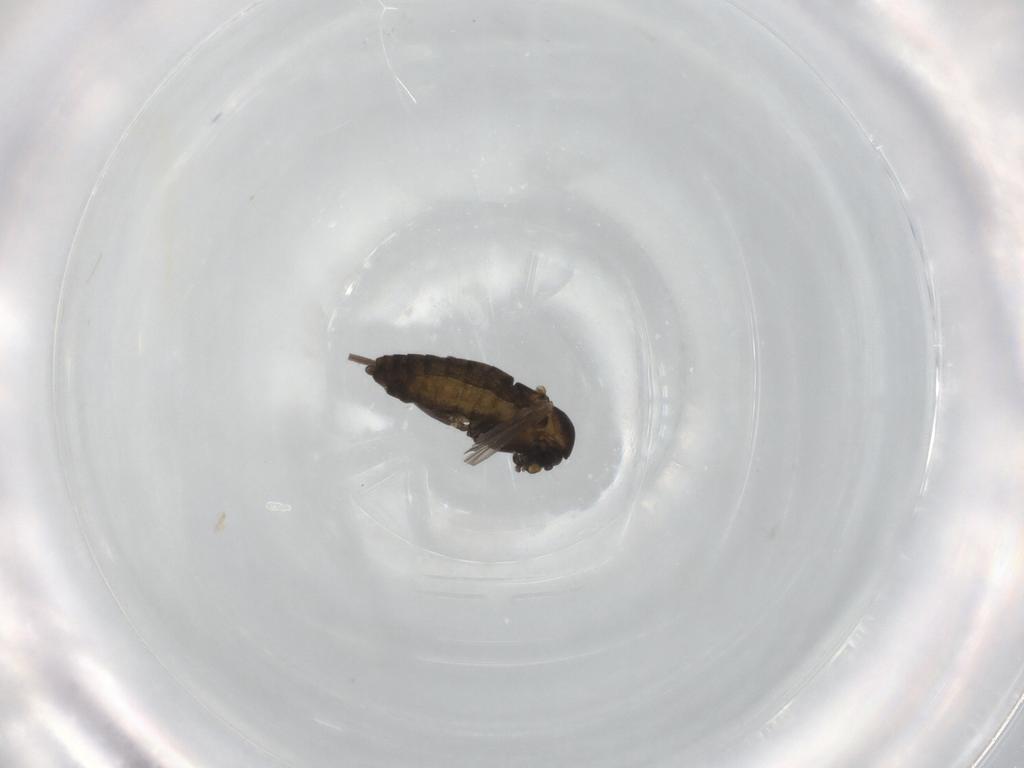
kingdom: Animalia
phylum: Arthropoda
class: Insecta
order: Diptera
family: Chironomidae
